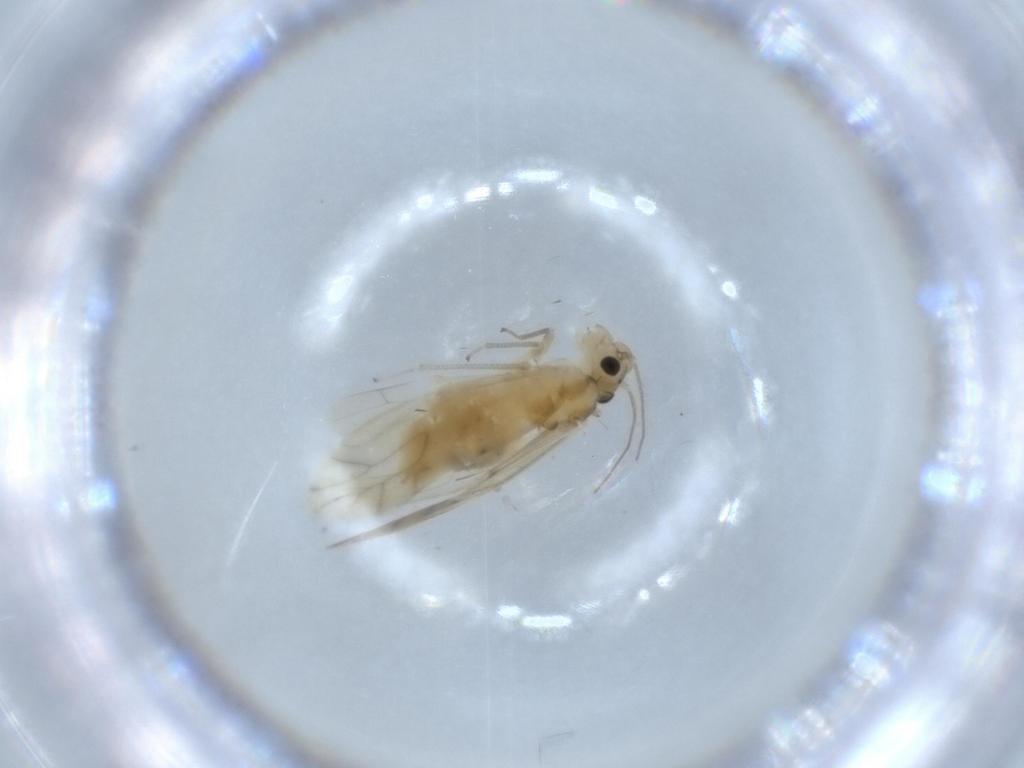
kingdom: Animalia
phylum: Arthropoda
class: Insecta
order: Psocodea
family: Caeciliusidae
